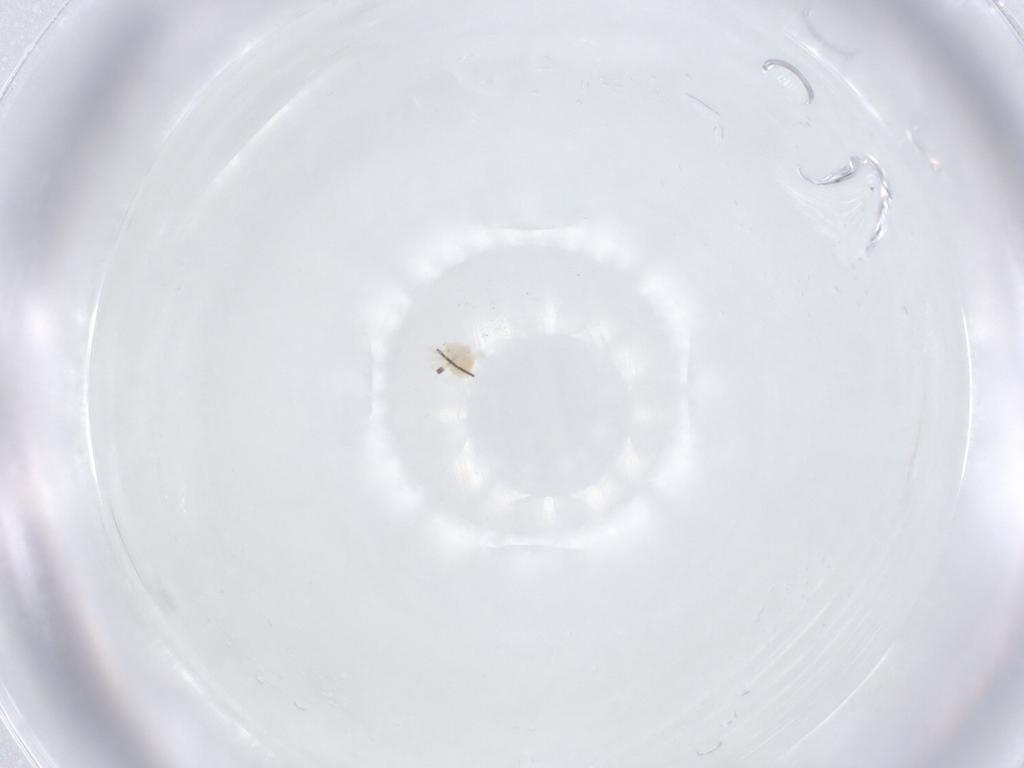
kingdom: Animalia
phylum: Arthropoda
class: Arachnida
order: Trombidiformes
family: Anystidae
